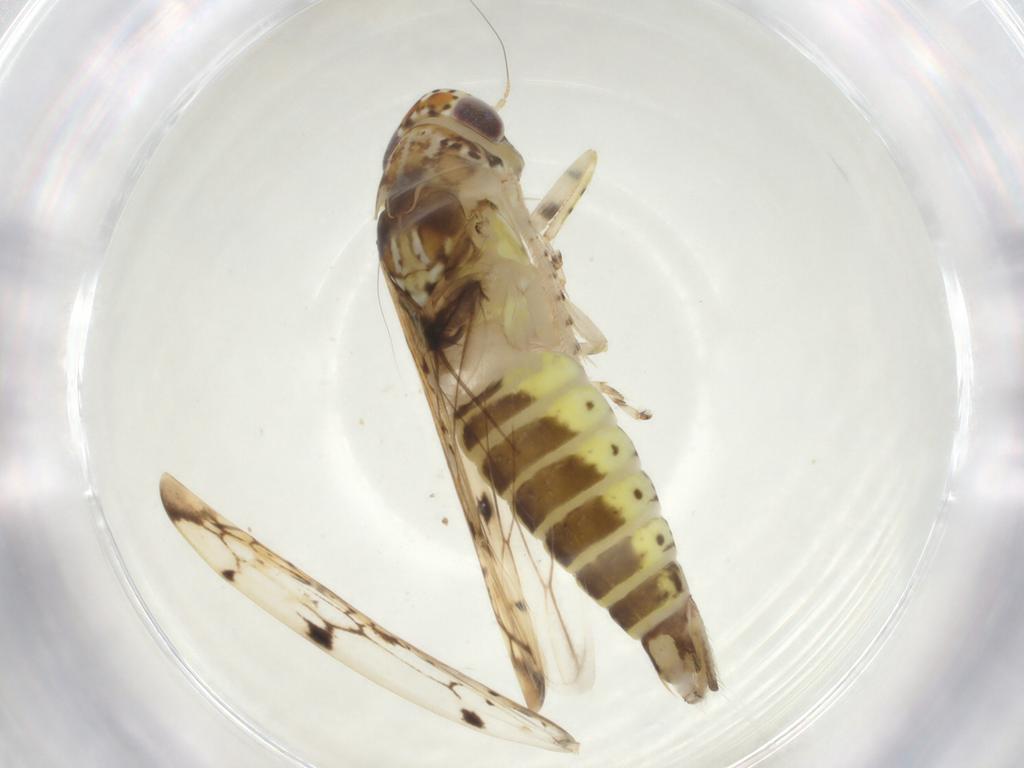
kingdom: Animalia
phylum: Arthropoda
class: Insecta
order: Hemiptera
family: Cicadellidae
